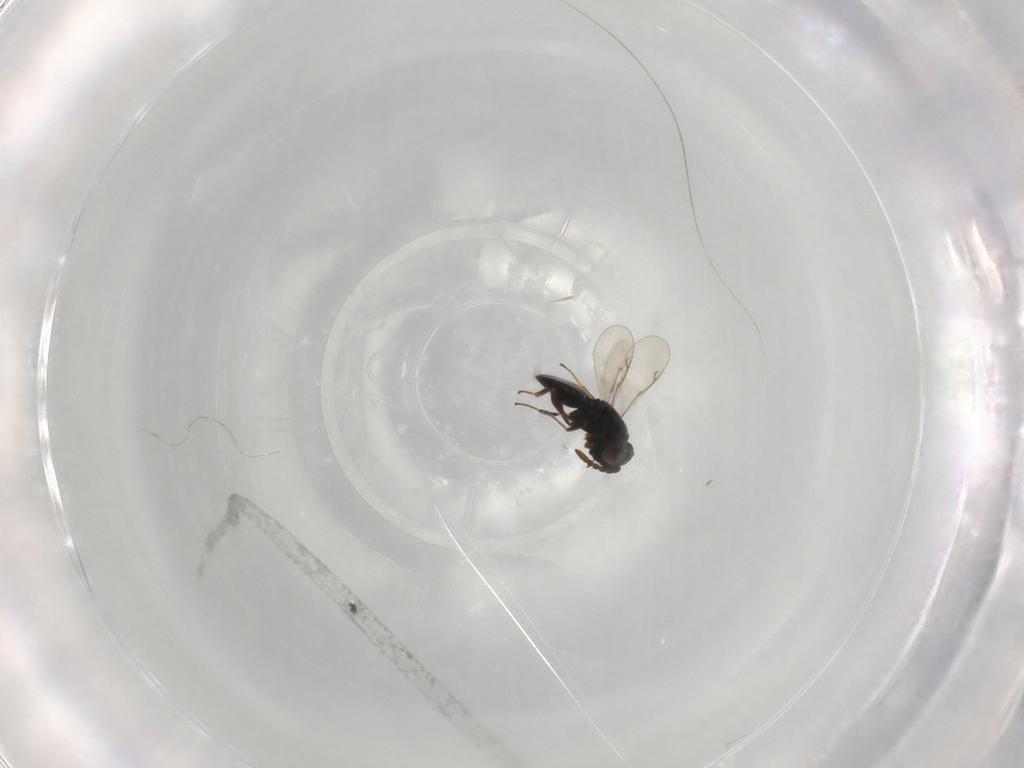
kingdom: Animalia
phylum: Arthropoda
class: Insecta
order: Hymenoptera
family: Eunotidae
